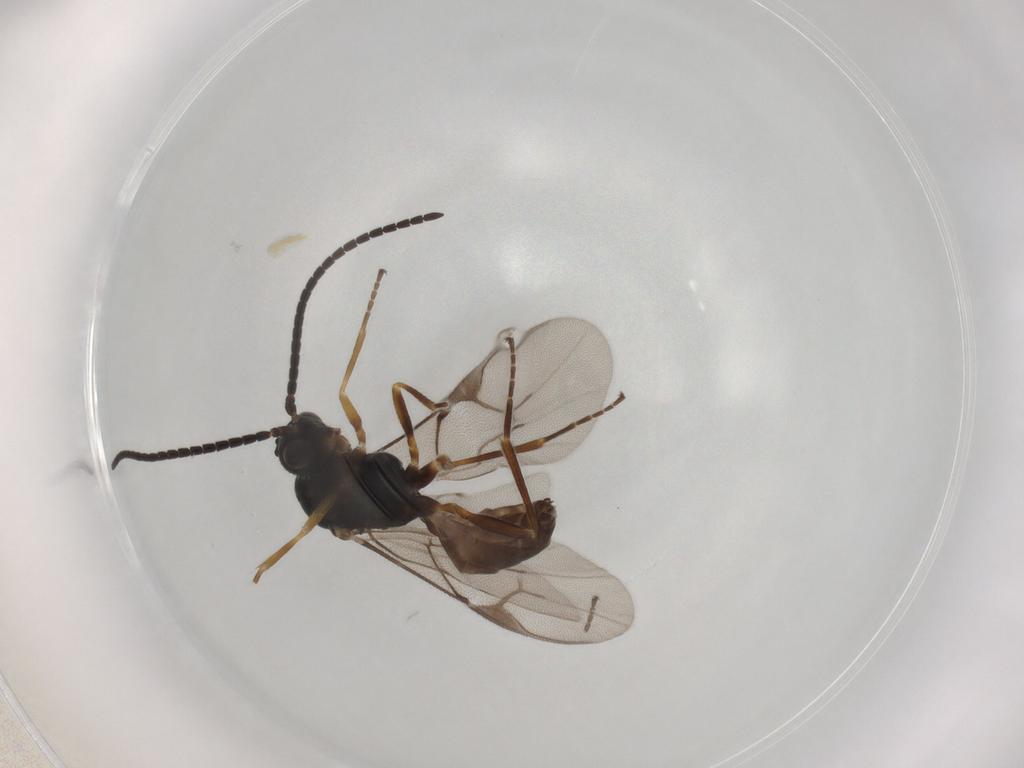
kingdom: Animalia
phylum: Arthropoda
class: Insecta
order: Hymenoptera
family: Braconidae
